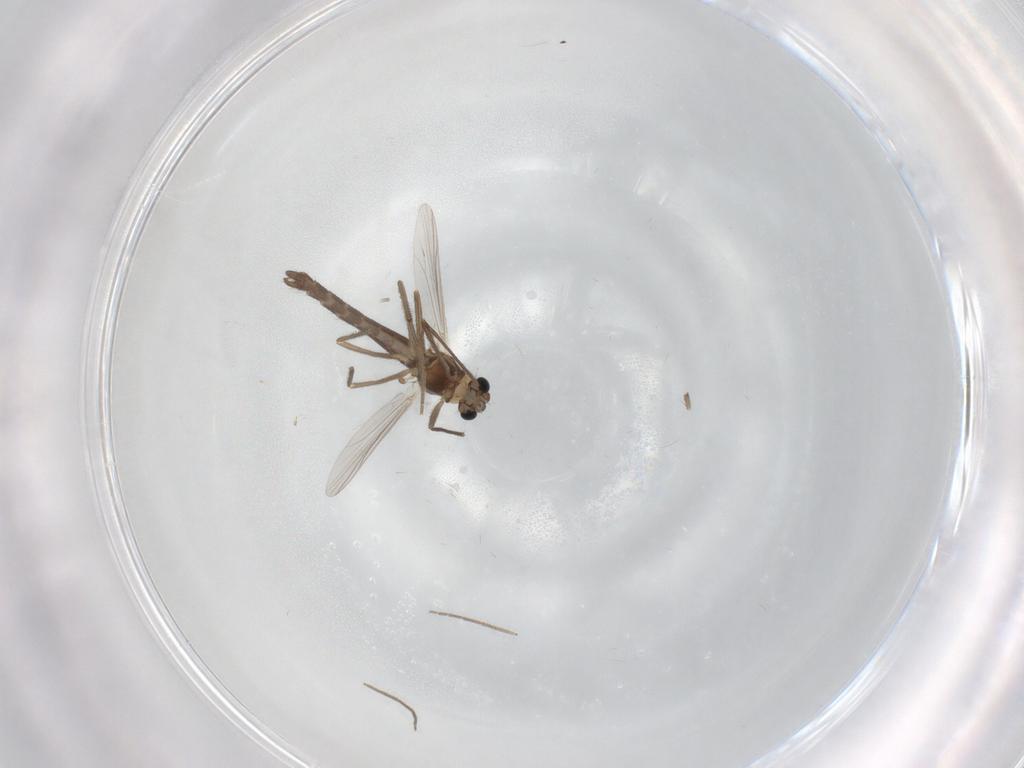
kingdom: Animalia
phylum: Arthropoda
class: Insecta
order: Diptera
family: Chironomidae
